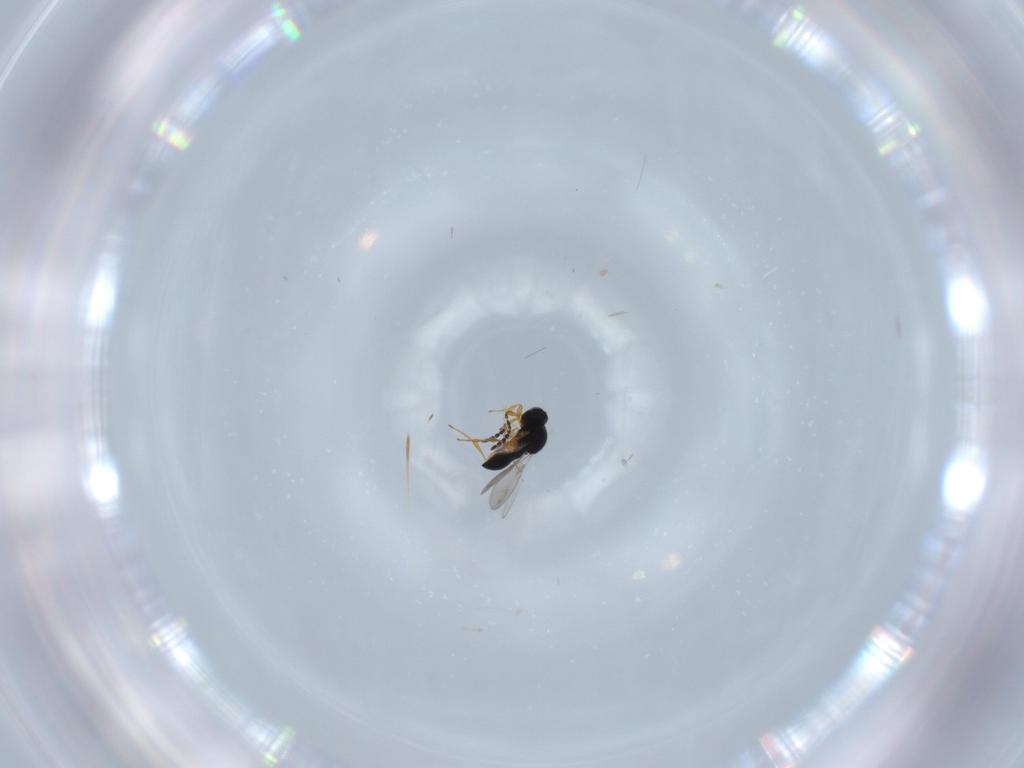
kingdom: Animalia
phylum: Arthropoda
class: Insecta
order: Hymenoptera
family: Platygastridae
